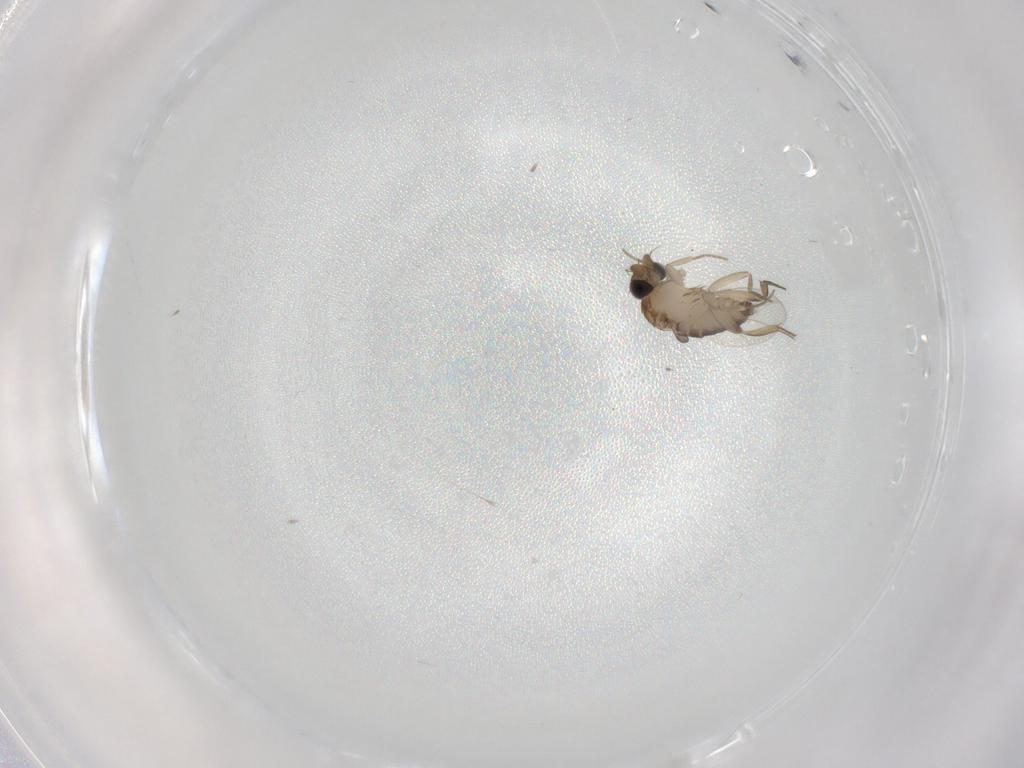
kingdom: Animalia
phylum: Arthropoda
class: Insecta
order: Diptera
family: Phoridae
